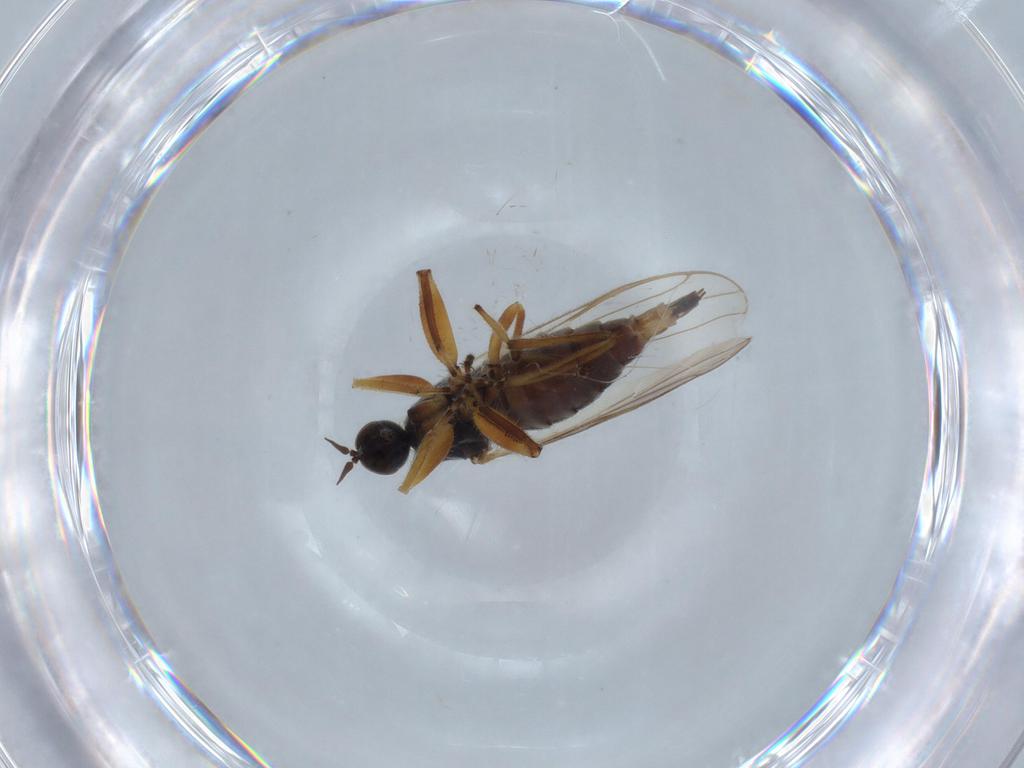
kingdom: Animalia
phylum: Arthropoda
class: Insecta
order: Diptera
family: Hybotidae
